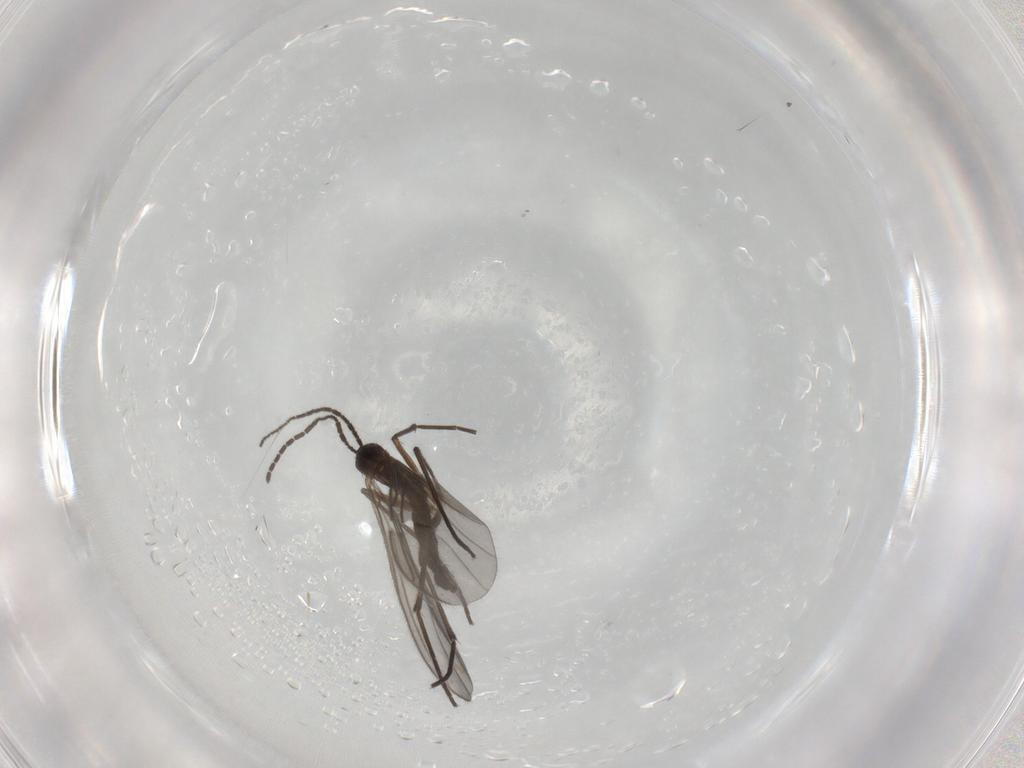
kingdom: Animalia
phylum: Arthropoda
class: Insecta
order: Diptera
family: Sciaridae
